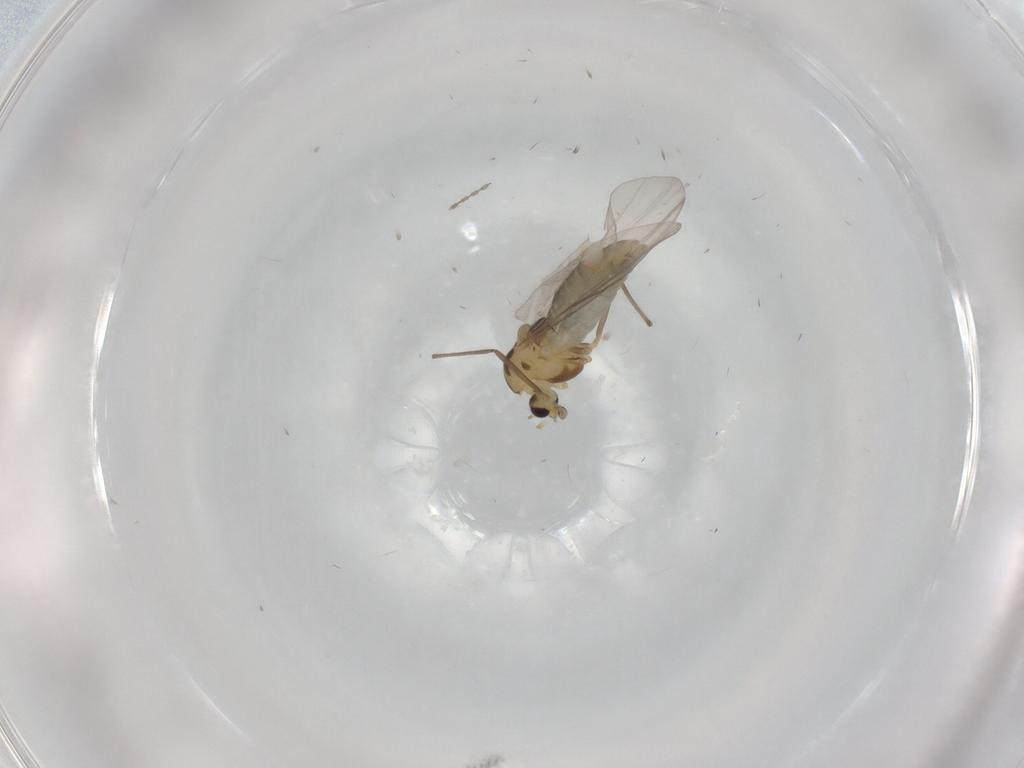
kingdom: Animalia
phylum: Arthropoda
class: Insecta
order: Diptera
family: Chironomidae
